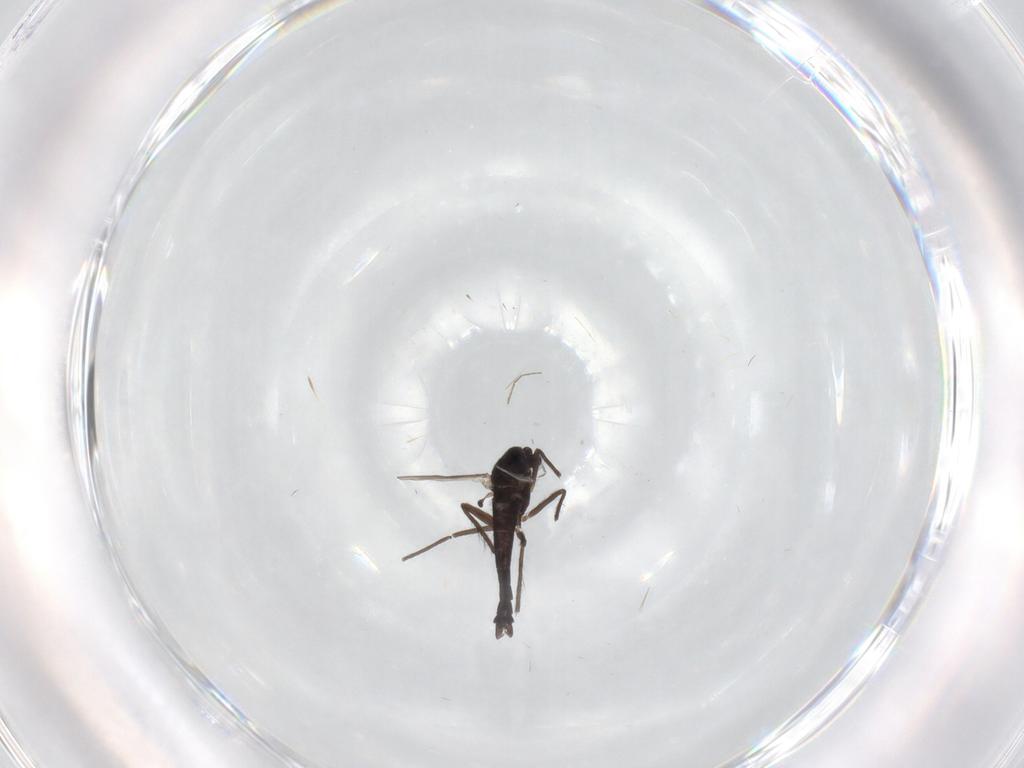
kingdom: Animalia
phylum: Arthropoda
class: Insecta
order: Diptera
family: Chironomidae
